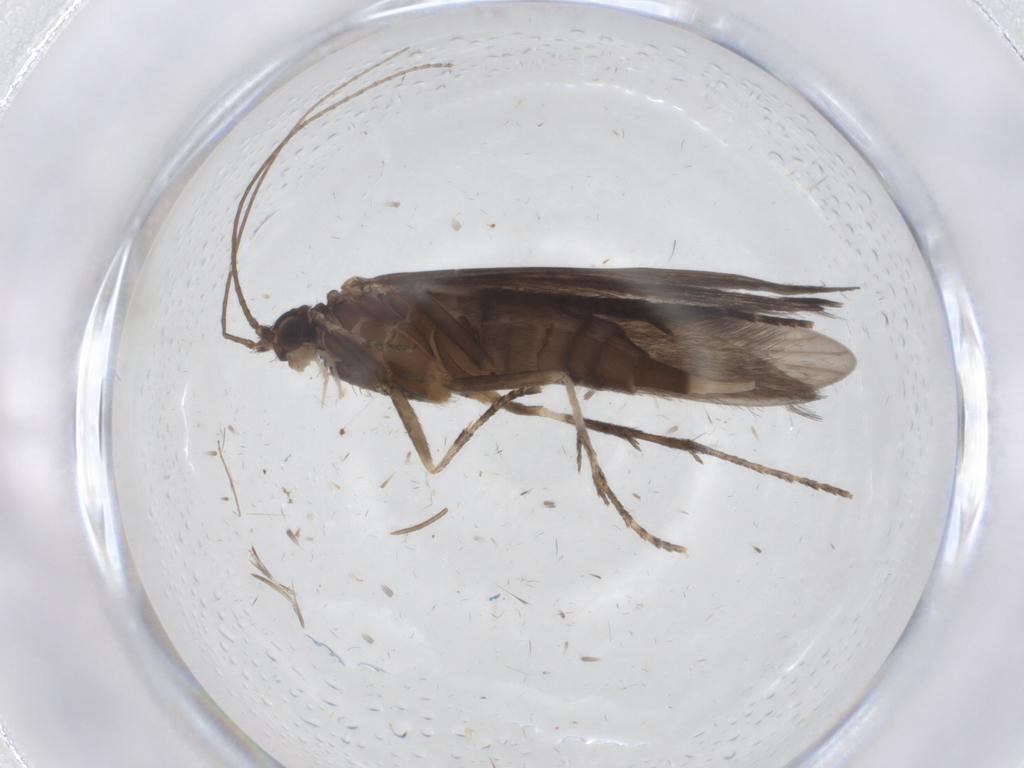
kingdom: Animalia
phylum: Arthropoda
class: Insecta
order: Trichoptera
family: Xiphocentronidae
